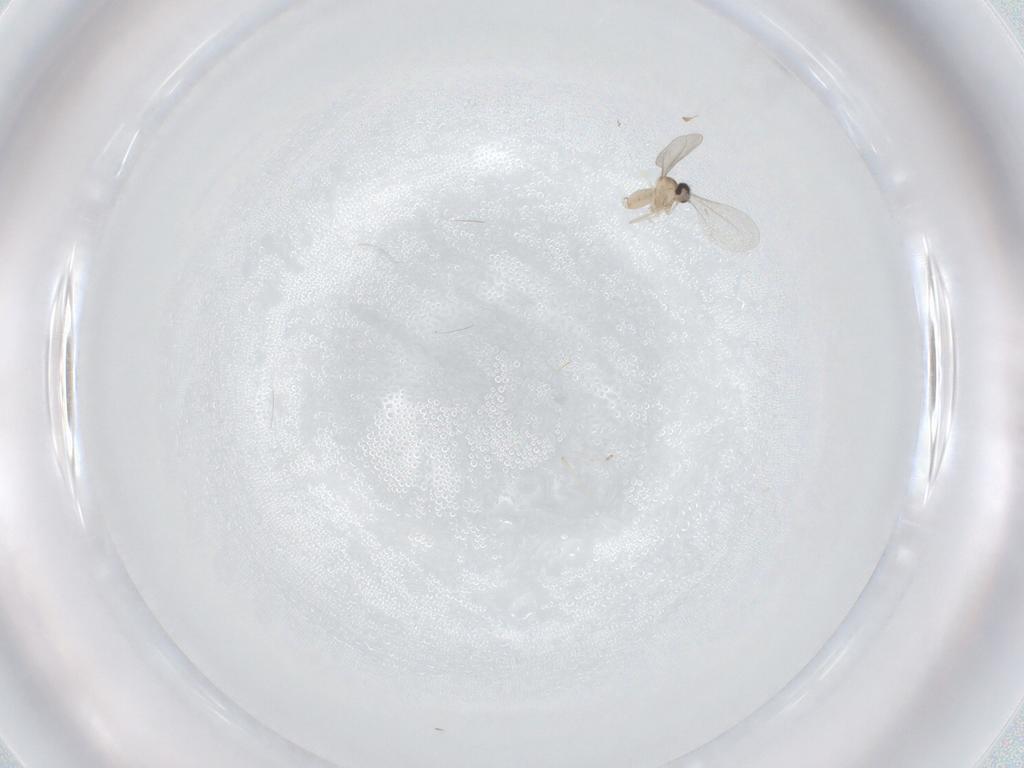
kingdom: Animalia
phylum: Arthropoda
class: Insecta
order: Diptera
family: Cecidomyiidae
